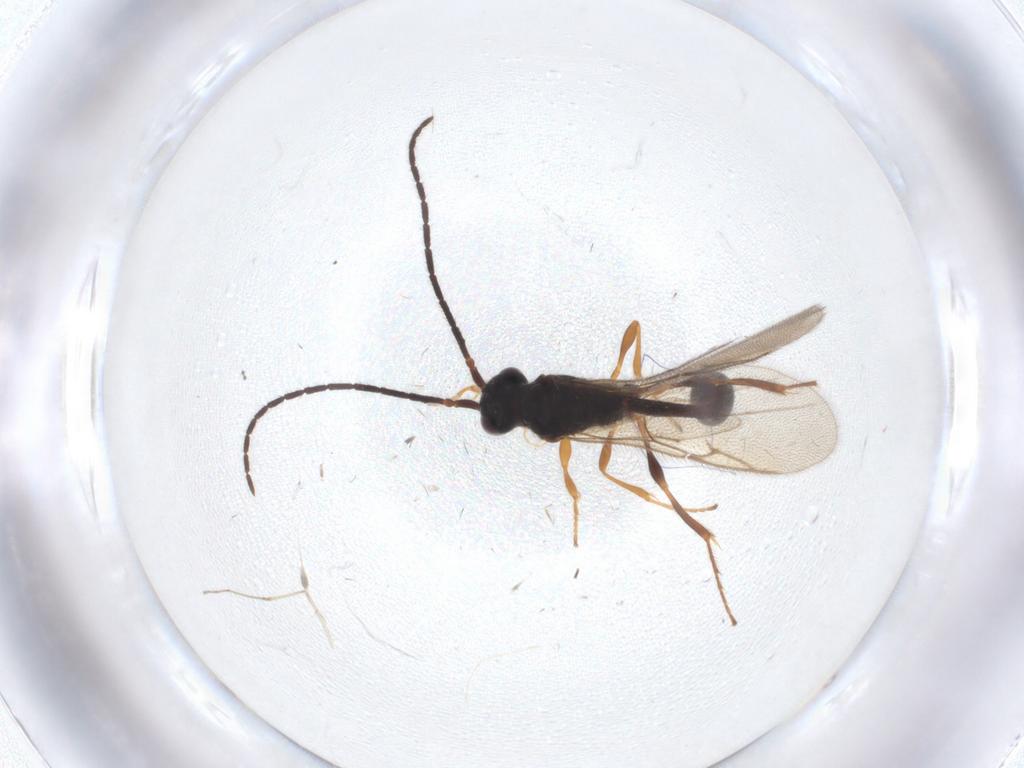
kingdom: Animalia
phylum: Arthropoda
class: Insecta
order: Hymenoptera
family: Diapriidae
